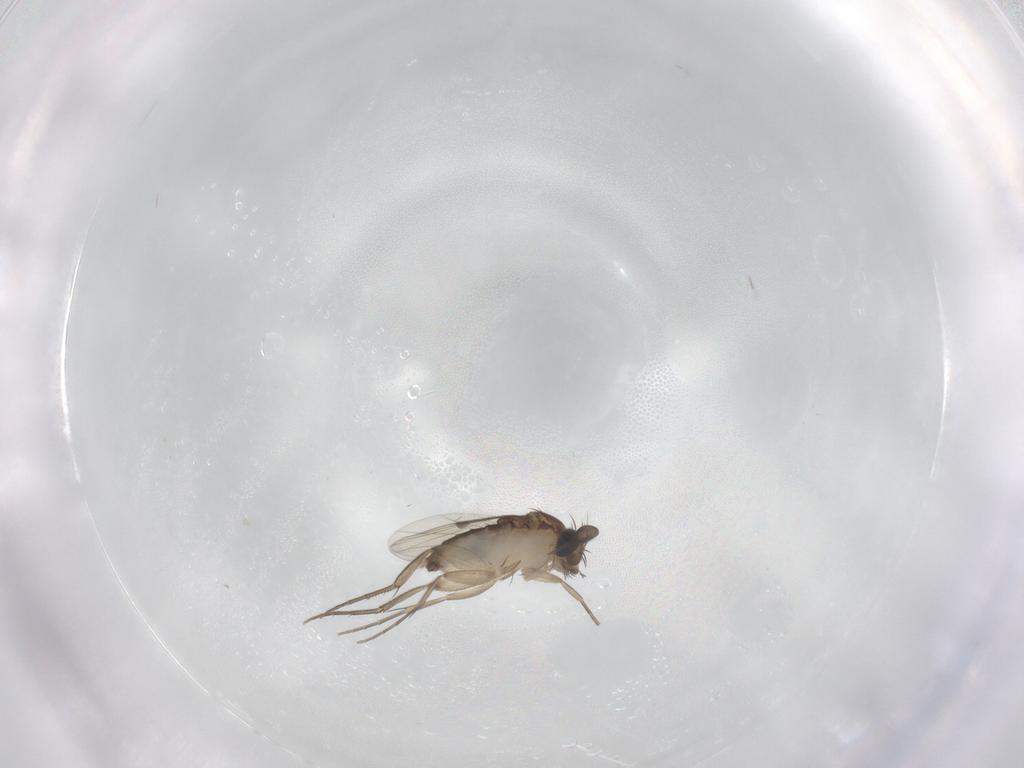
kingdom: Animalia
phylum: Arthropoda
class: Insecta
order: Diptera
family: Phoridae
